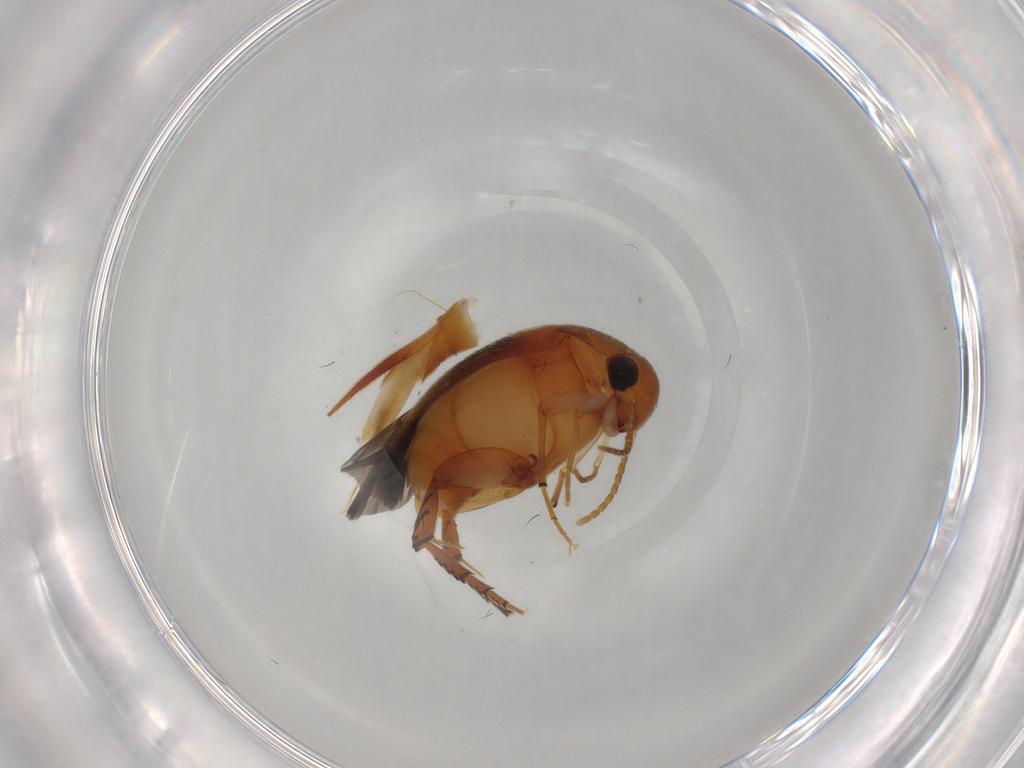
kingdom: Animalia
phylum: Arthropoda
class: Insecta
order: Coleoptera
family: Mordellidae
